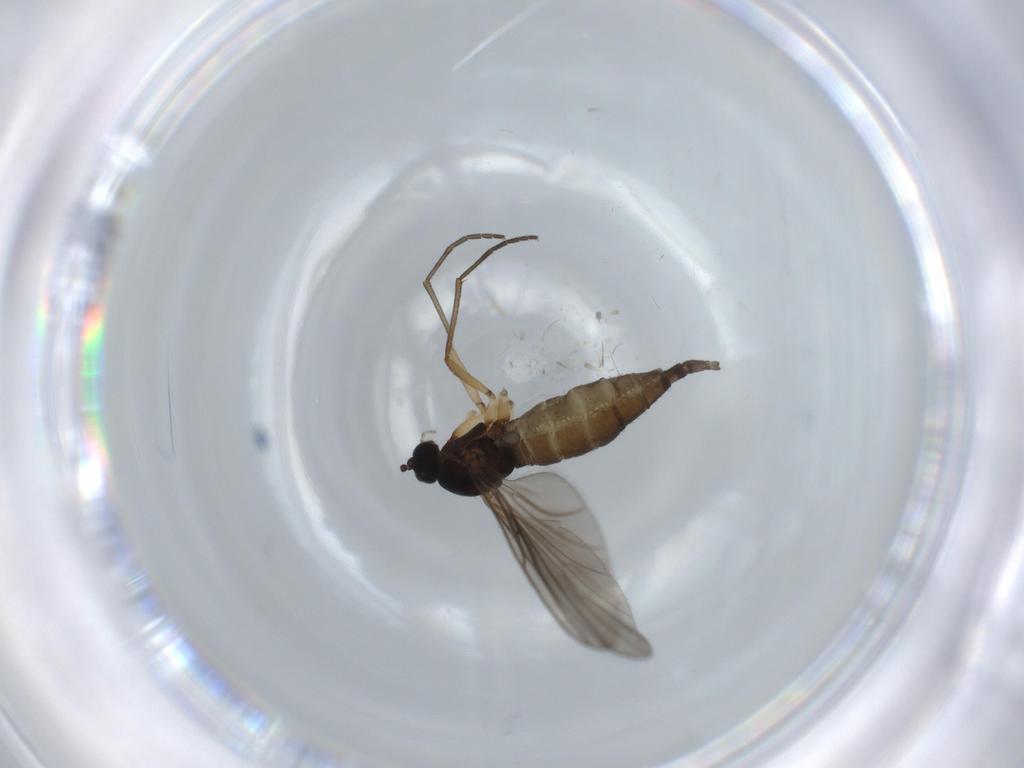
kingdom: Animalia
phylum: Arthropoda
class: Insecta
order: Diptera
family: Sciaridae
